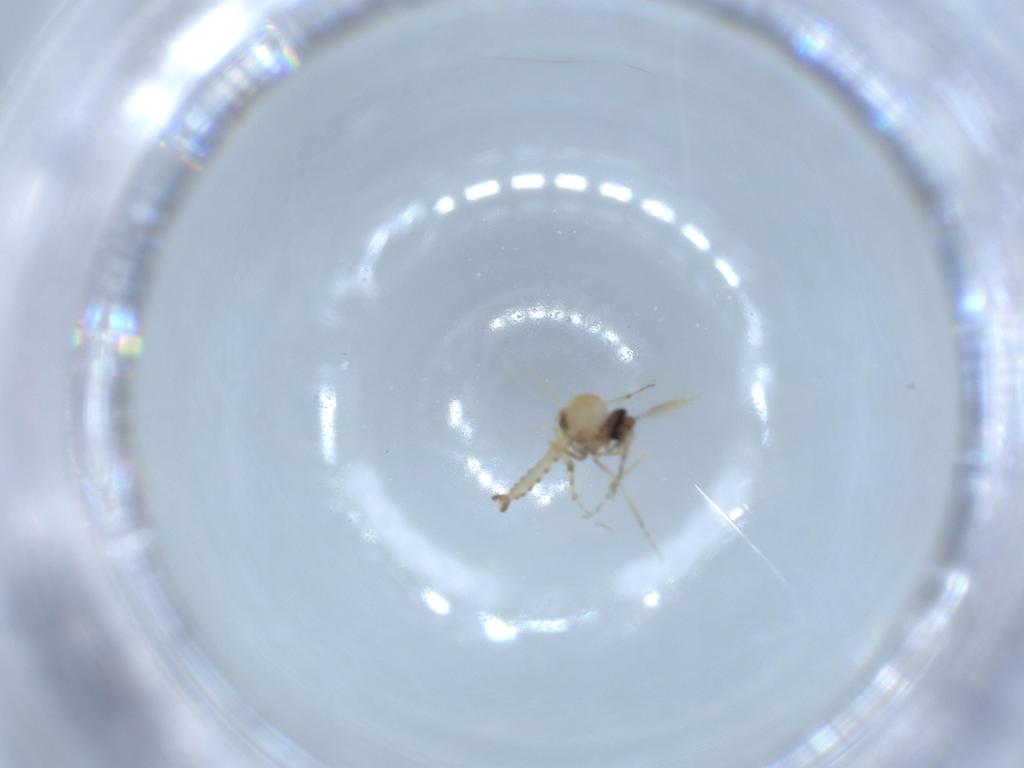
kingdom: Animalia
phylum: Arthropoda
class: Insecta
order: Diptera
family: Ceratopogonidae
